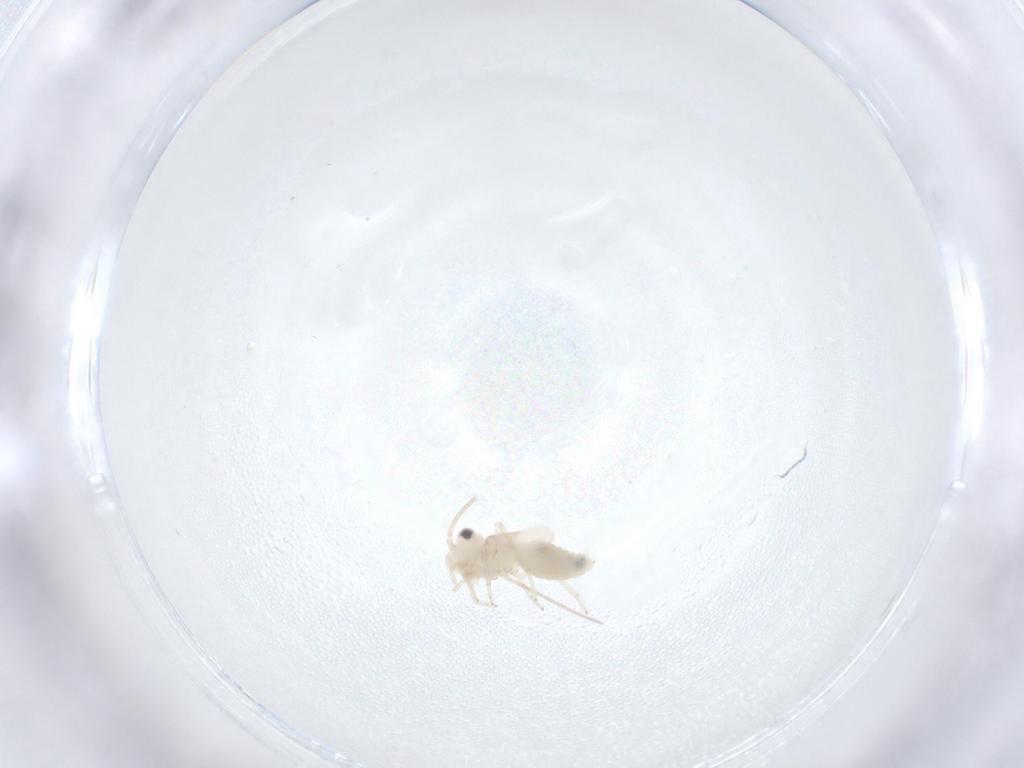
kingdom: Animalia
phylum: Arthropoda
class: Insecta
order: Psocodea
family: Caeciliusidae
